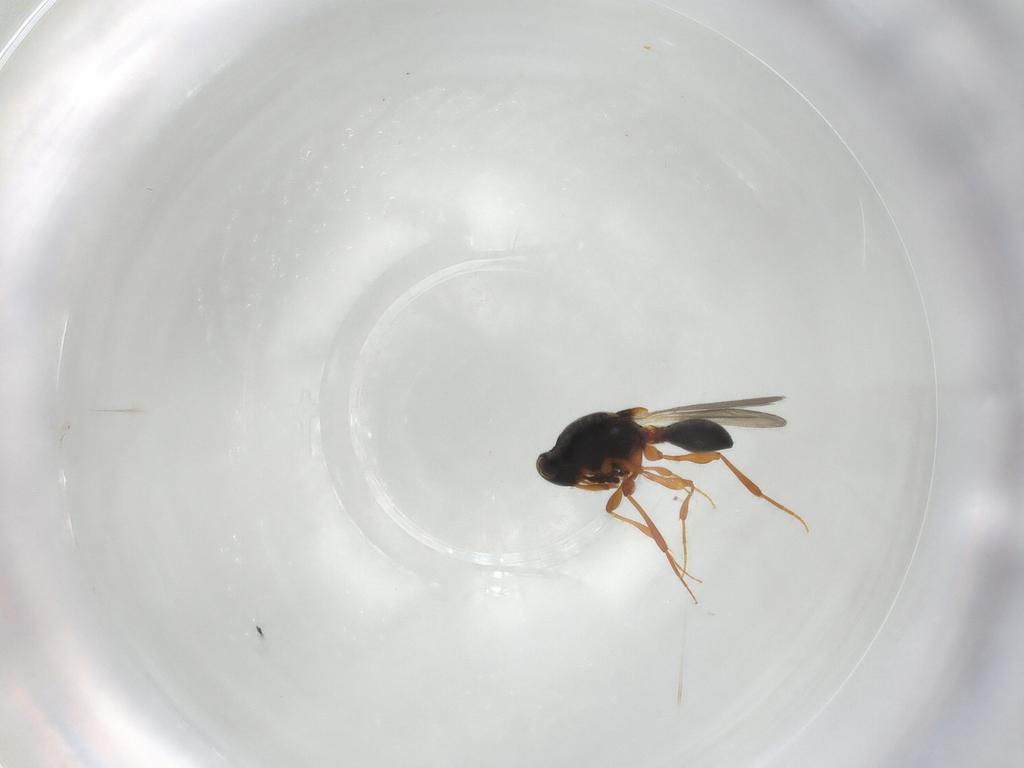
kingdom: Animalia
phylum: Arthropoda
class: Insecta
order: Hymenoptera
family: Platygastridae
